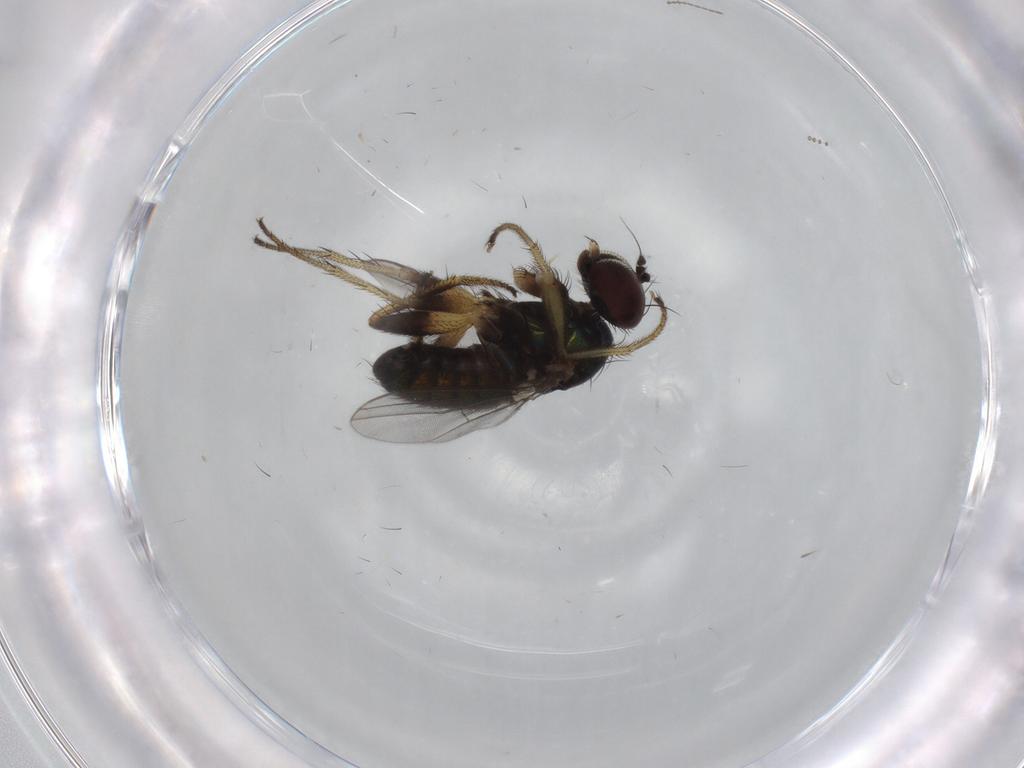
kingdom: Animalia
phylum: Arthropoda
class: Insecta
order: Diptera
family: Dolichopodidae
